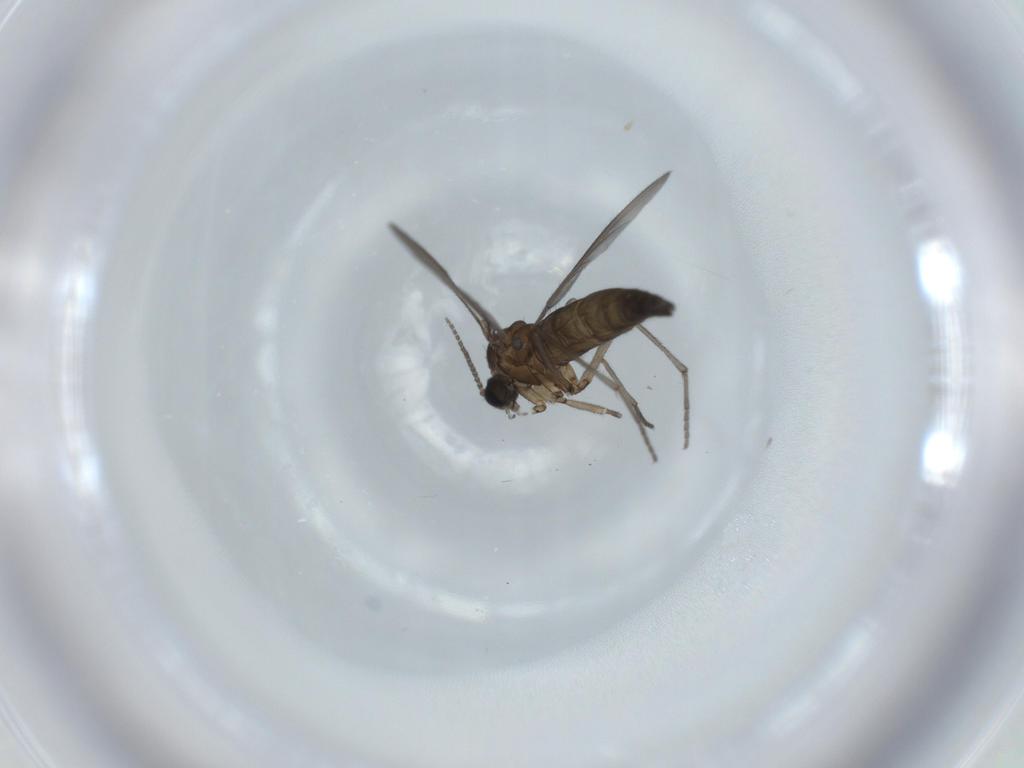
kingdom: Animalia
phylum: Arthropoda
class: Insecta
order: Diptera
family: Sciaridae
